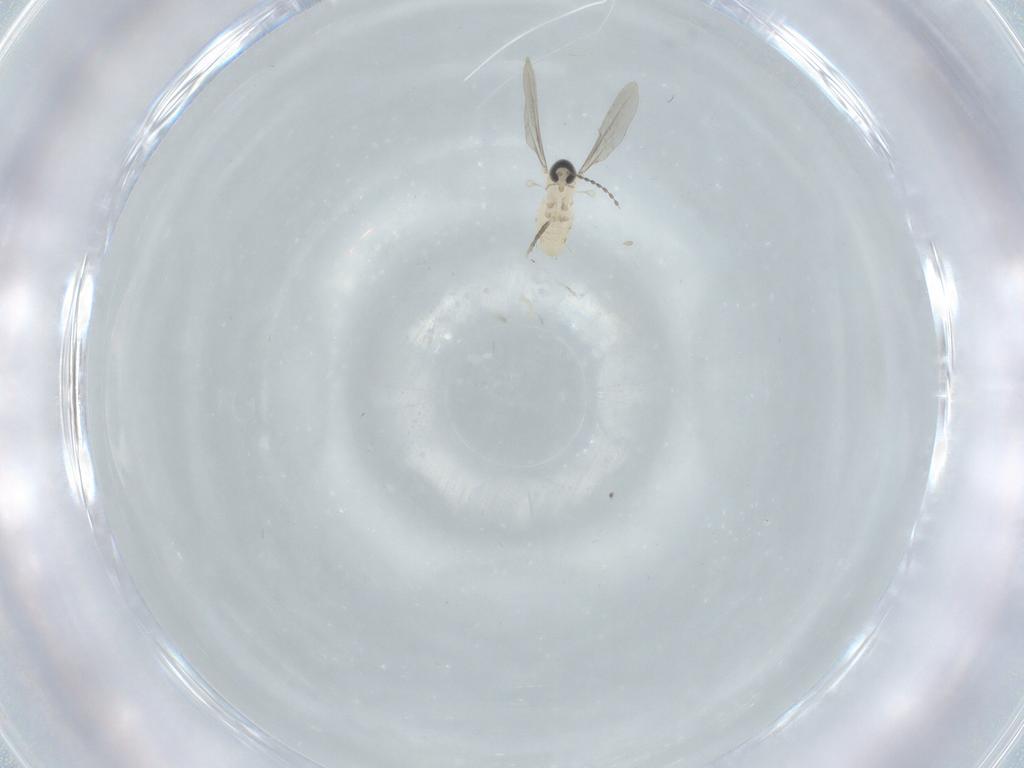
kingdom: Animalia
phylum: Arthropoda
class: Insecta
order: Diptera
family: Cecidomyiidae
